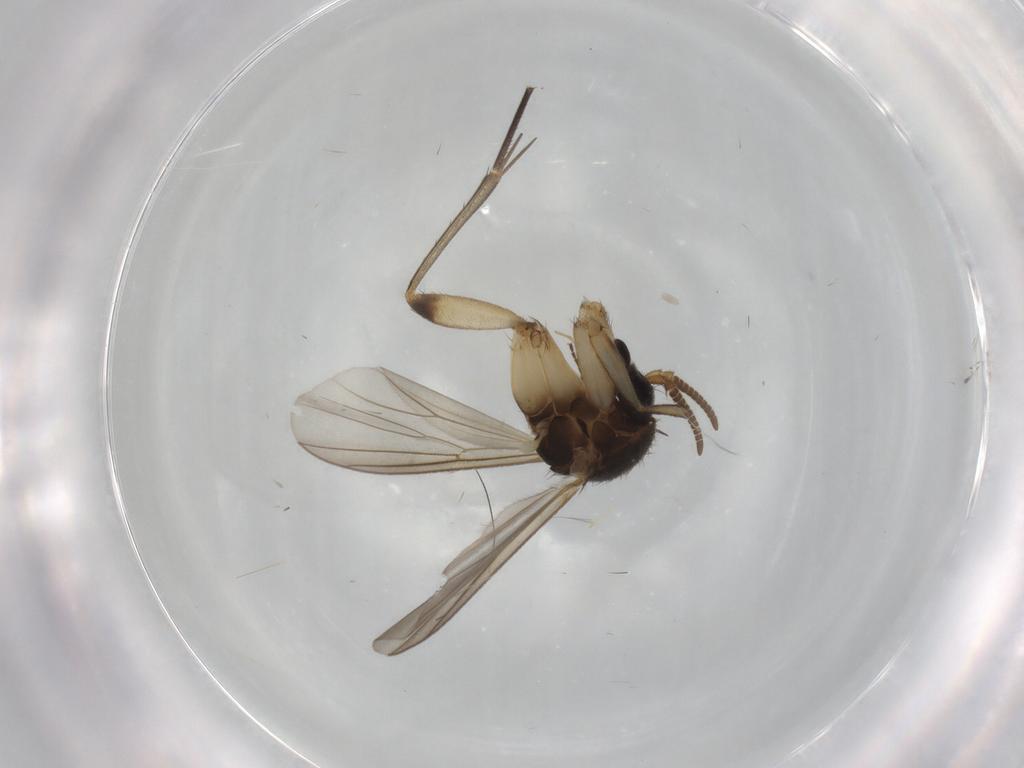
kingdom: Animalia
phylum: Arthropoda
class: Insecta
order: Diptera
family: Mycetophilidae
